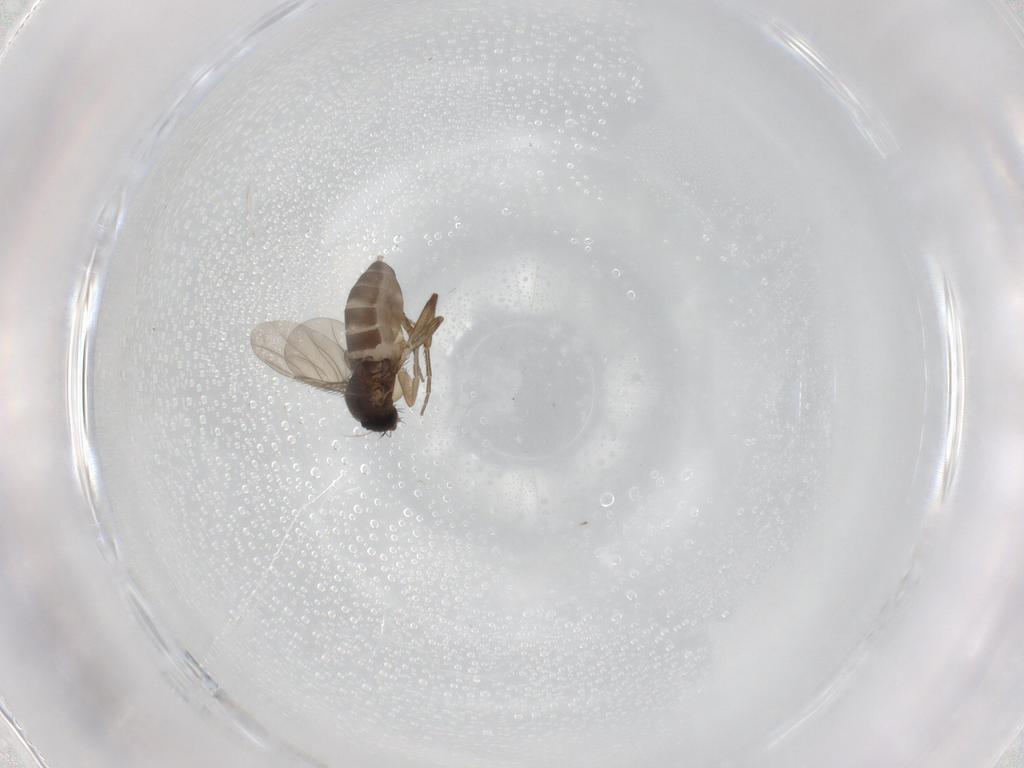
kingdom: Animalia
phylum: Arthropoda
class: Insecta
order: Diptera
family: Phoridae
